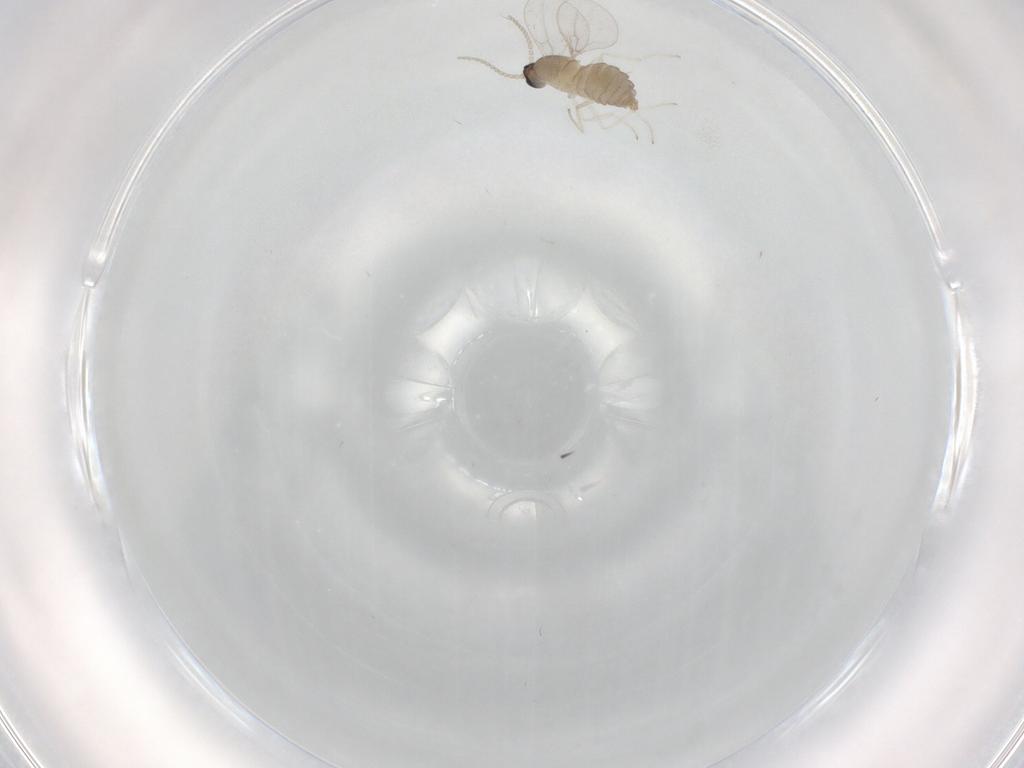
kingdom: Animalia
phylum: Arthropoda
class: Insecta
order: Diptera
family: Cecidomyiidae
